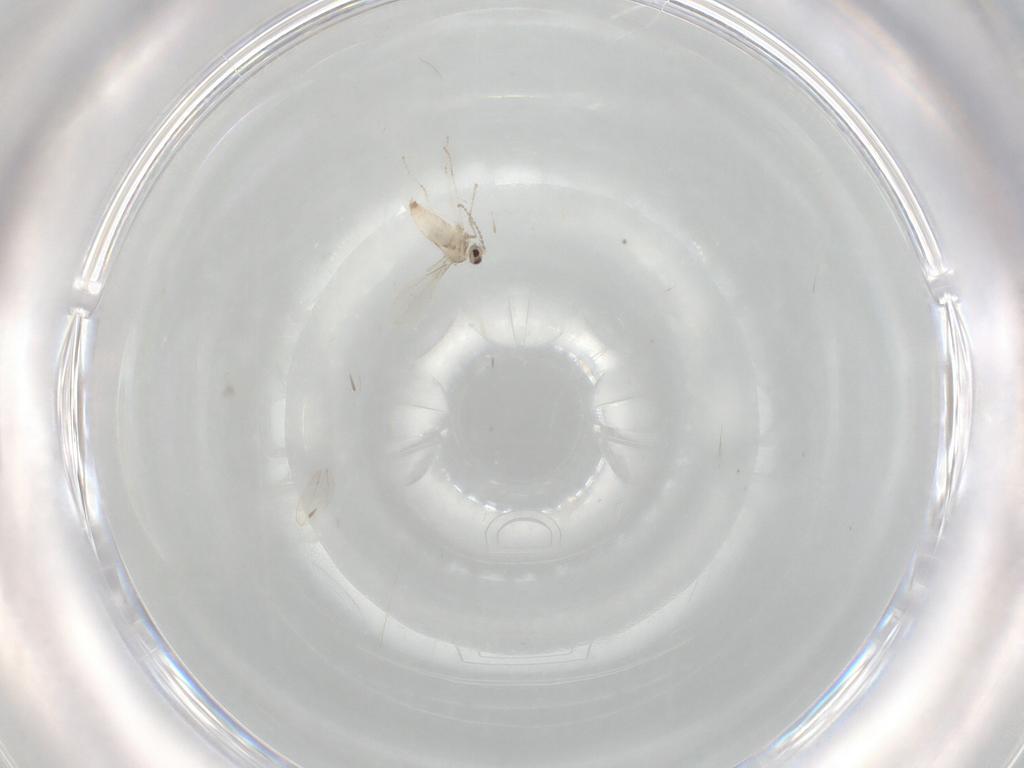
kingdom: Animalia
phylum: Arthropoda
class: Insecta
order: Diptera
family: Cecidomyiidae
